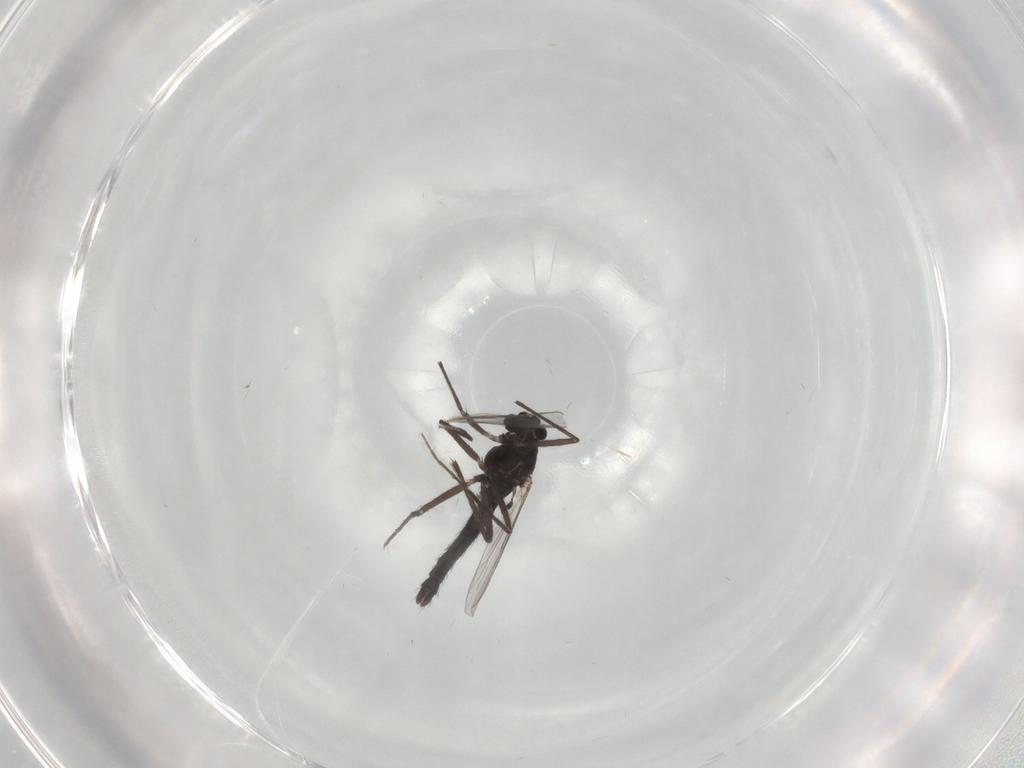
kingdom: Animalia
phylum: Arthropoda
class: Insecta
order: Diptera
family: Chironomidae
